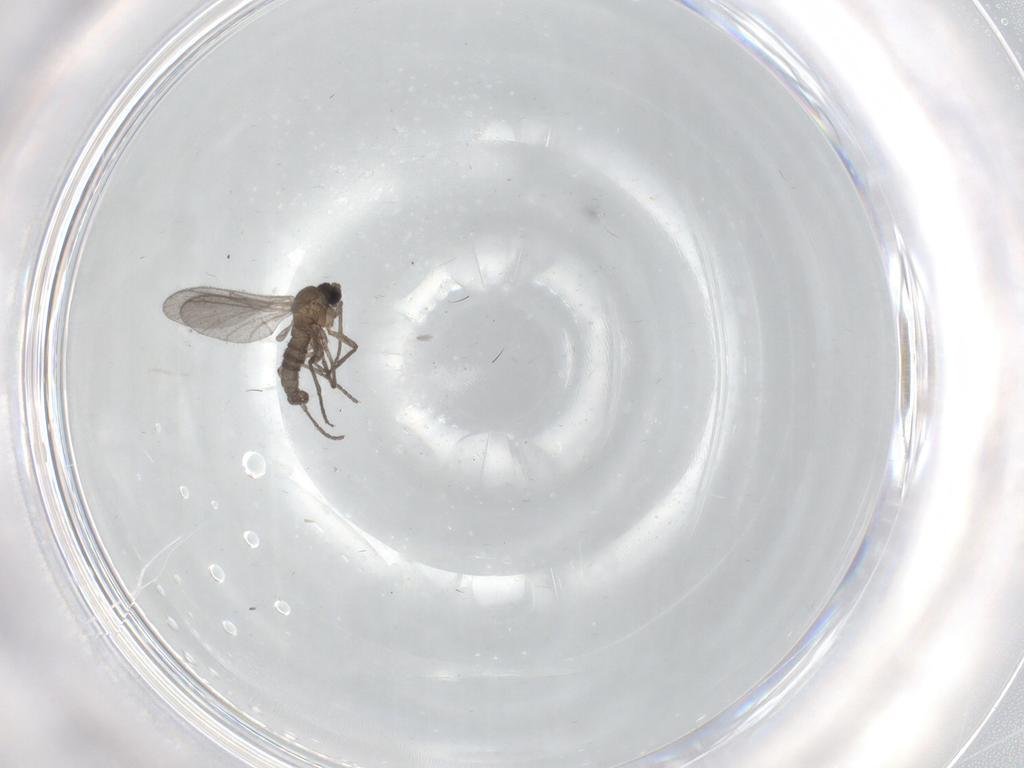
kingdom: Animalia
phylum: Arthropoda
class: Insecta
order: Diptera
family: Sciaridae
